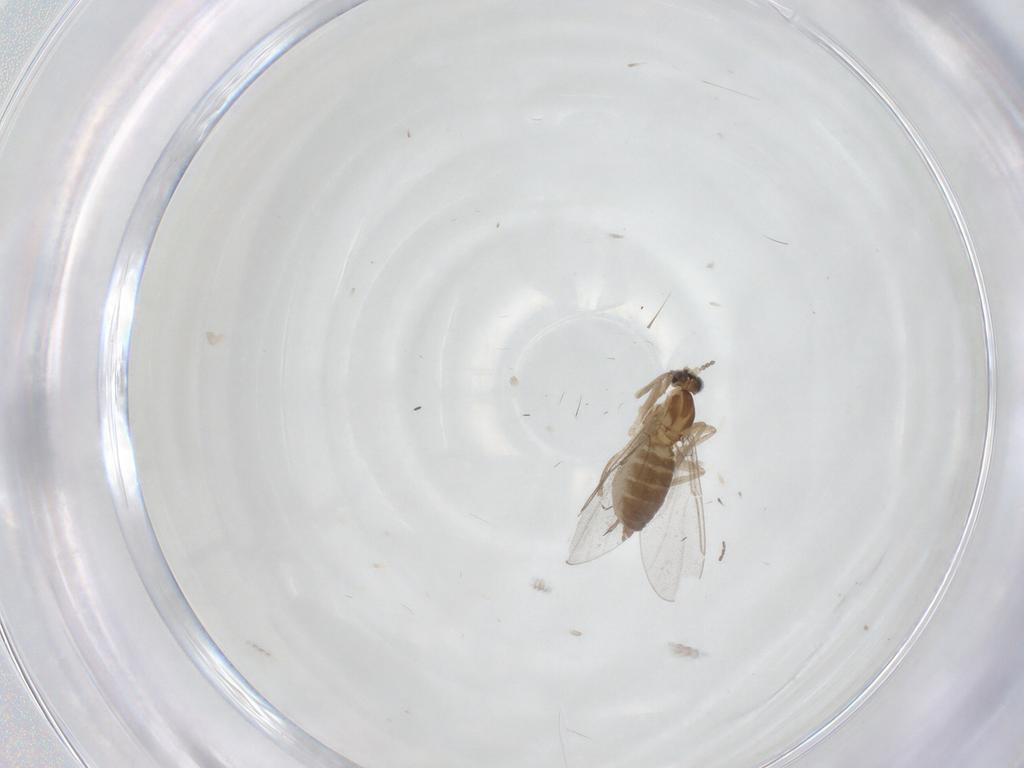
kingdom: Animalia
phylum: Arthropoda
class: Insecta
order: Diptera
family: Cecidomyiidae
